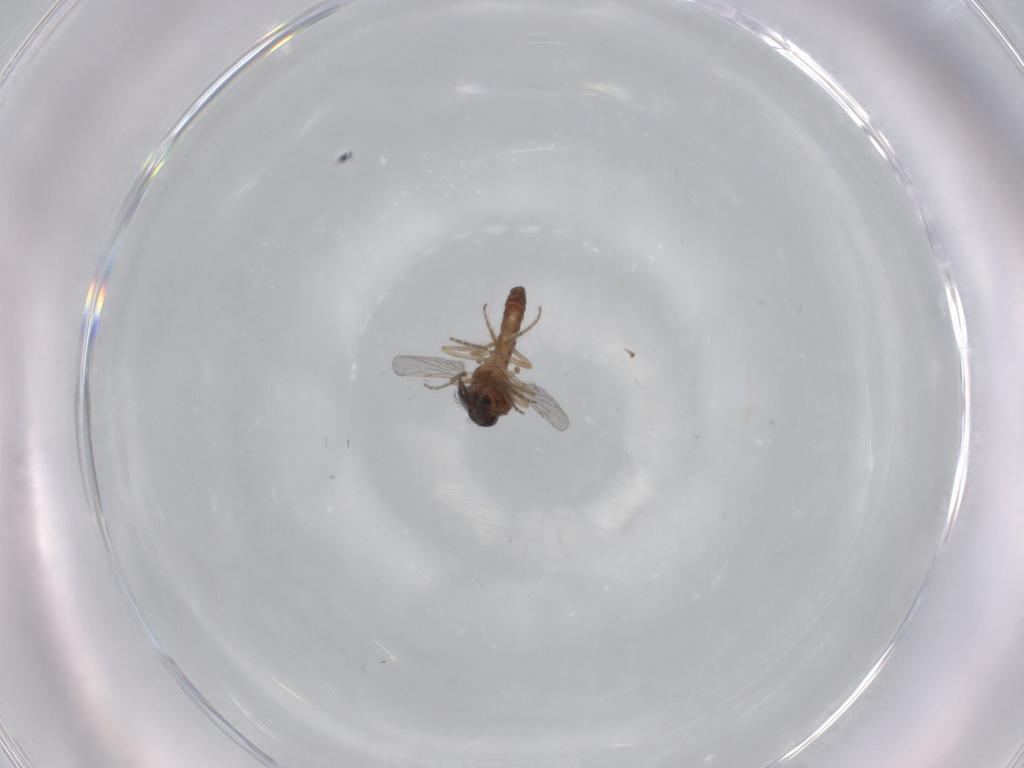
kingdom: Animalia
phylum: Arthropoda
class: Insecta
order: Diptera
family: Ceratopogonidae
